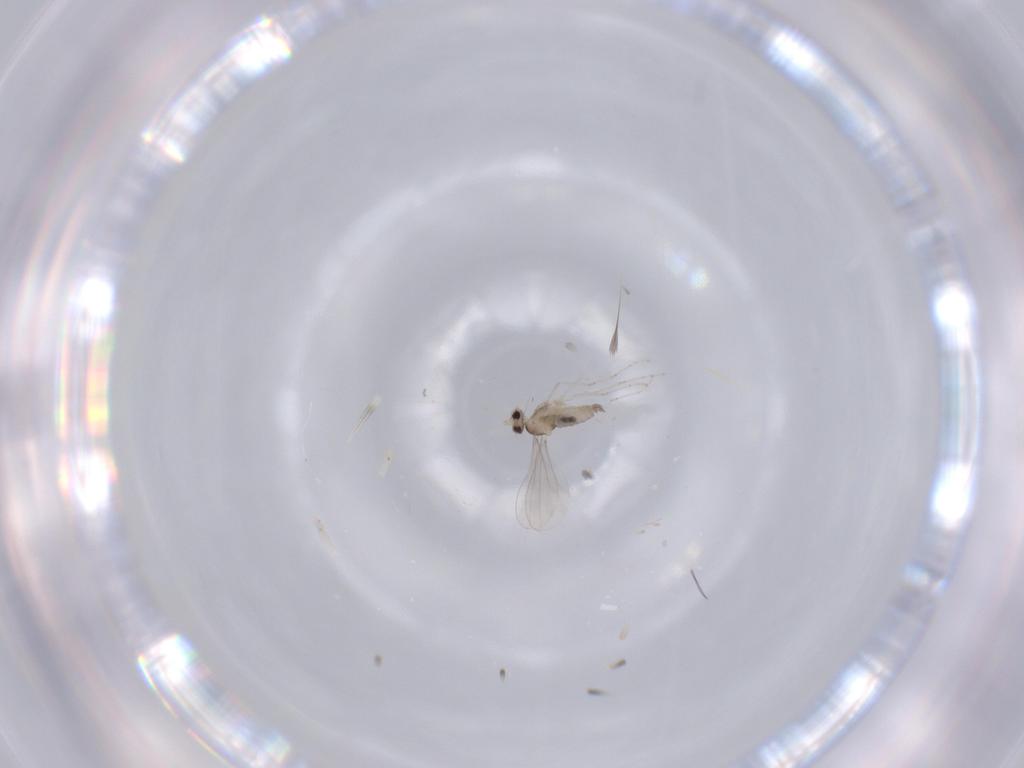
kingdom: Animalia
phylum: Arthropoda
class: Insecta
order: Diptera
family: Cecidomyiidae
